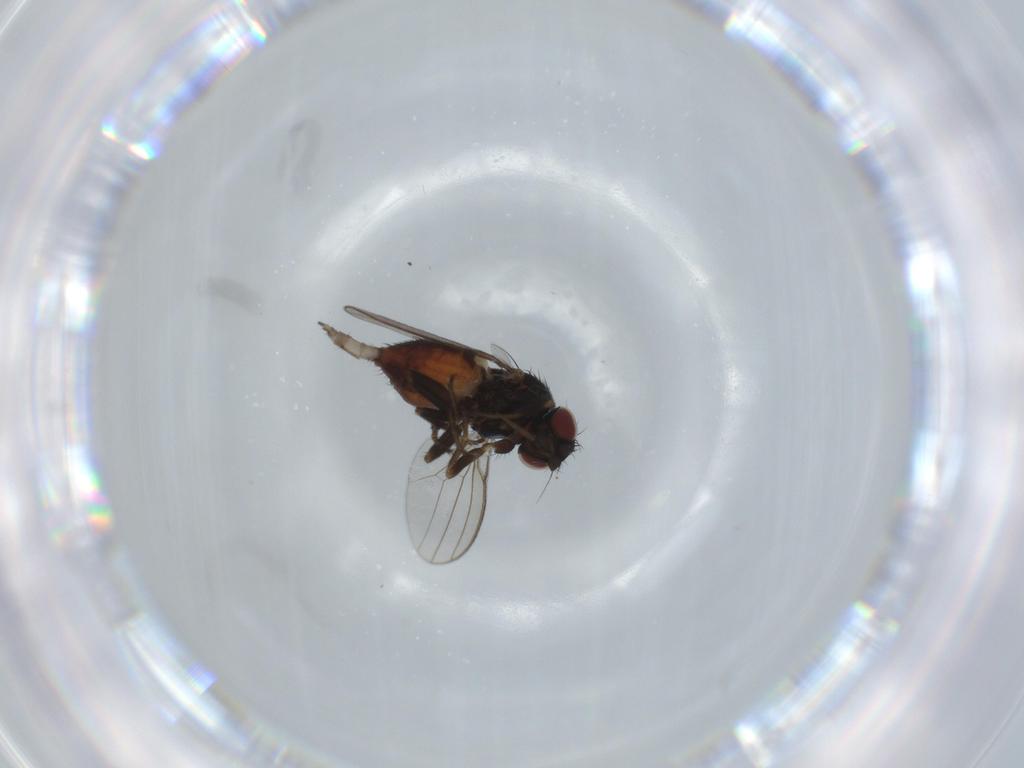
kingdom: Animalia
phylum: Arthropoda
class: Insecta
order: Diptera
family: Milichiidae
